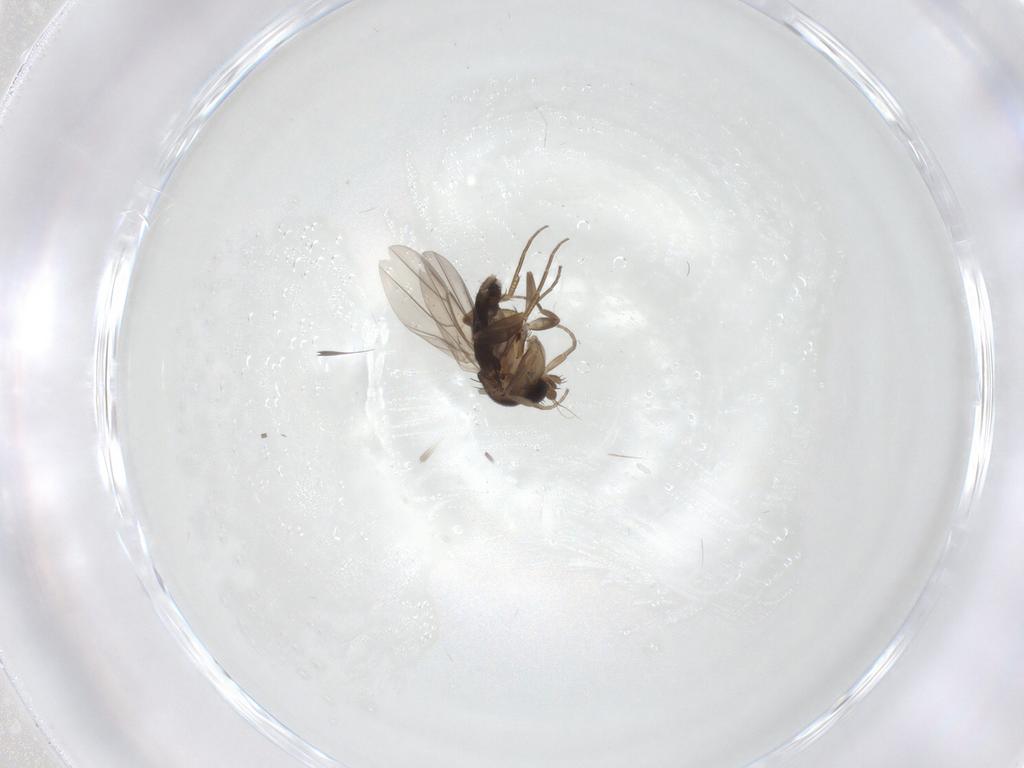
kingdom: Animalia
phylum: Arthropoda
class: Insecta
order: Diptera
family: Phoridae
